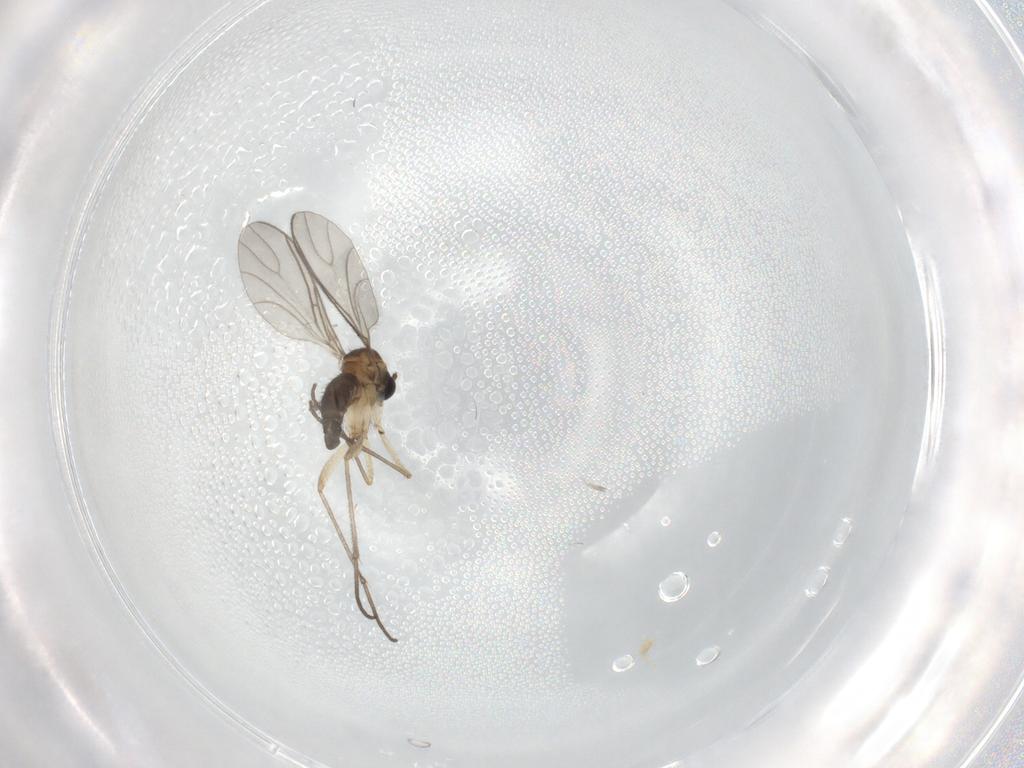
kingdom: Animalia
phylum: Arthropoda
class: Insecta
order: Diptera
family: Sciaridae
